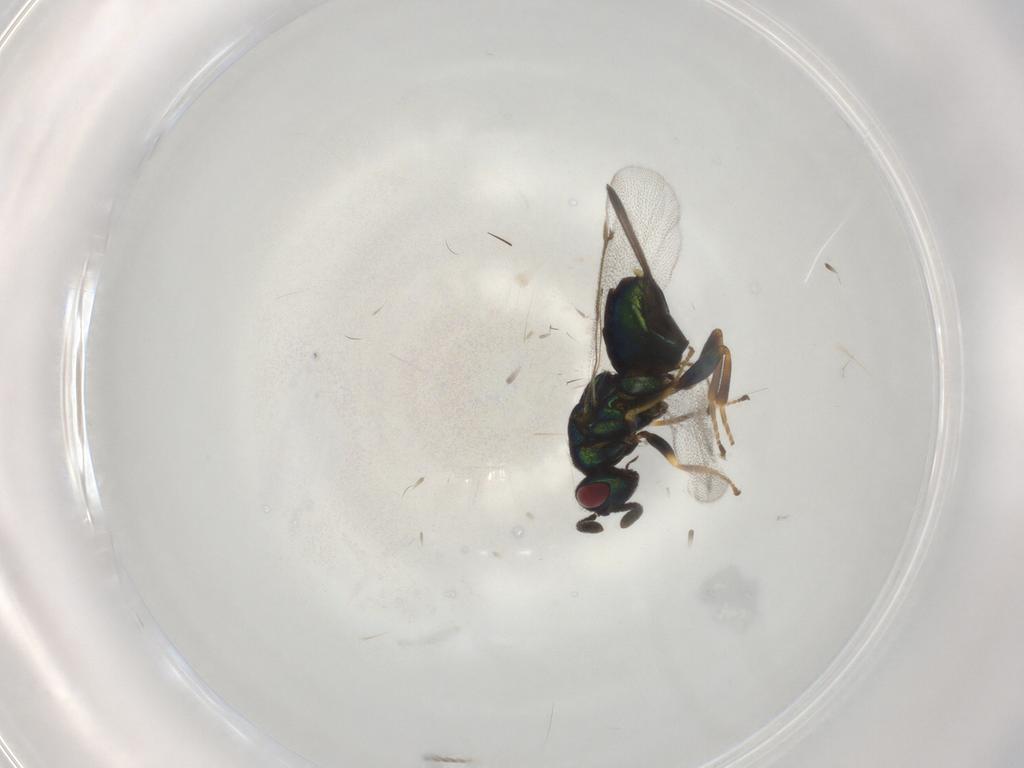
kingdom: Animalia
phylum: Arthropoda
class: Insecta
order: Hymenoptera
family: Torymidae
